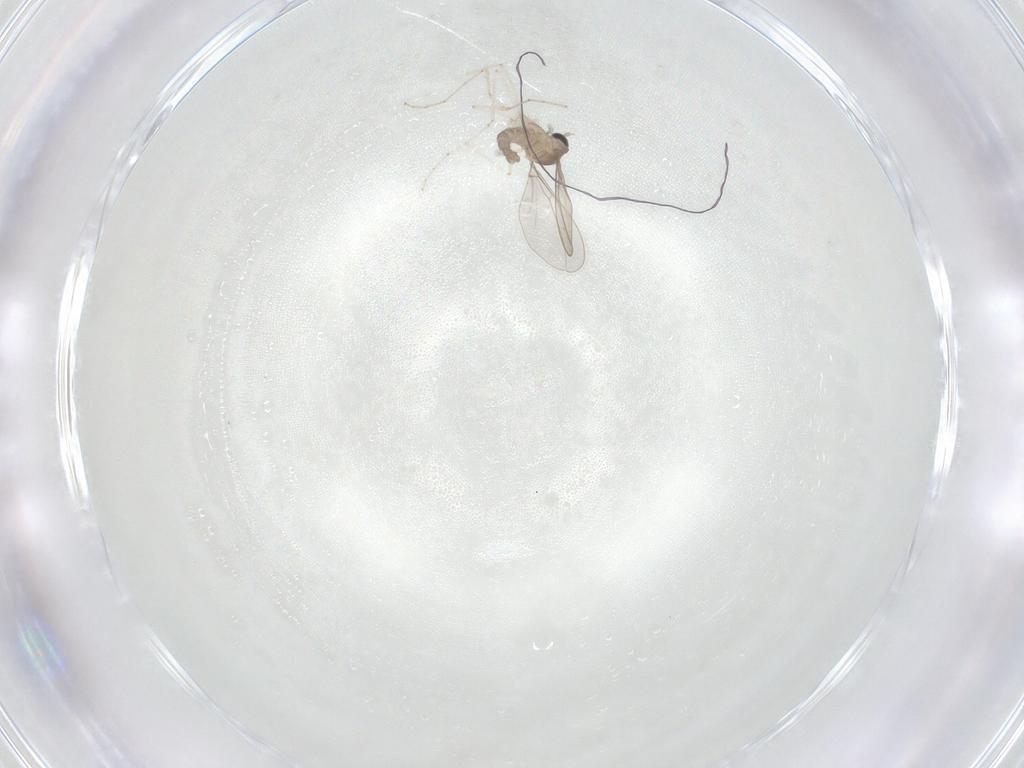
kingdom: Animalia
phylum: Arthropoda
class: Insecta
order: Diptera
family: Cecidomyiidae
